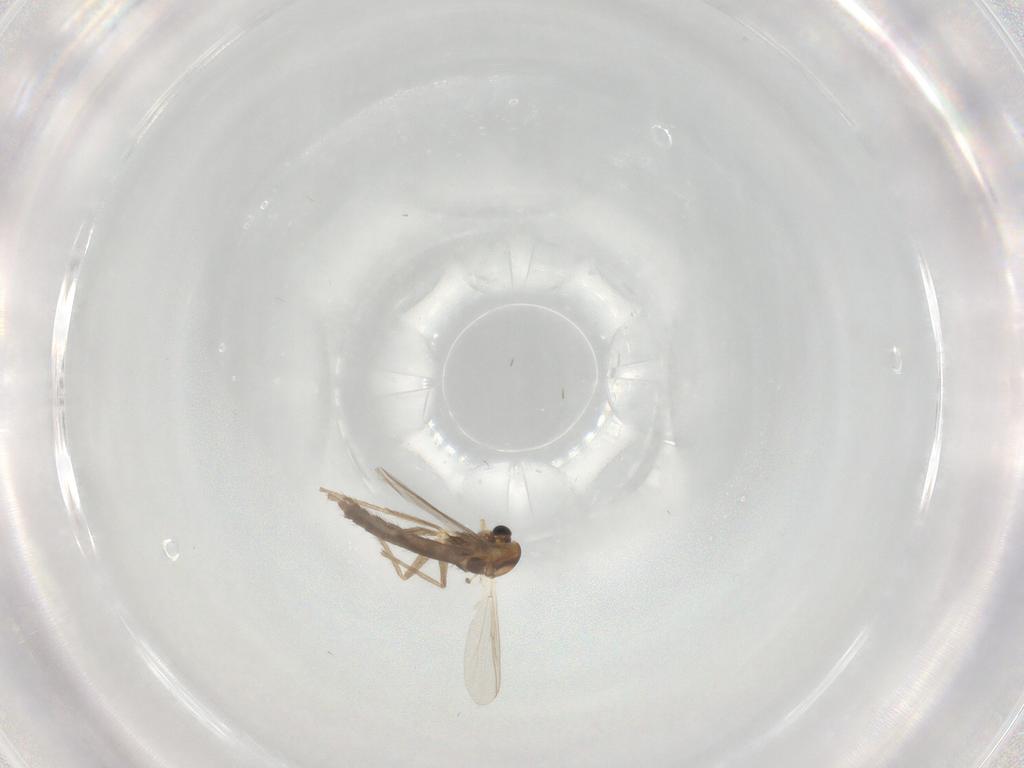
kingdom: Animalia
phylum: Arthropoda
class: Insecta
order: Diptera
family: Chironomidae
